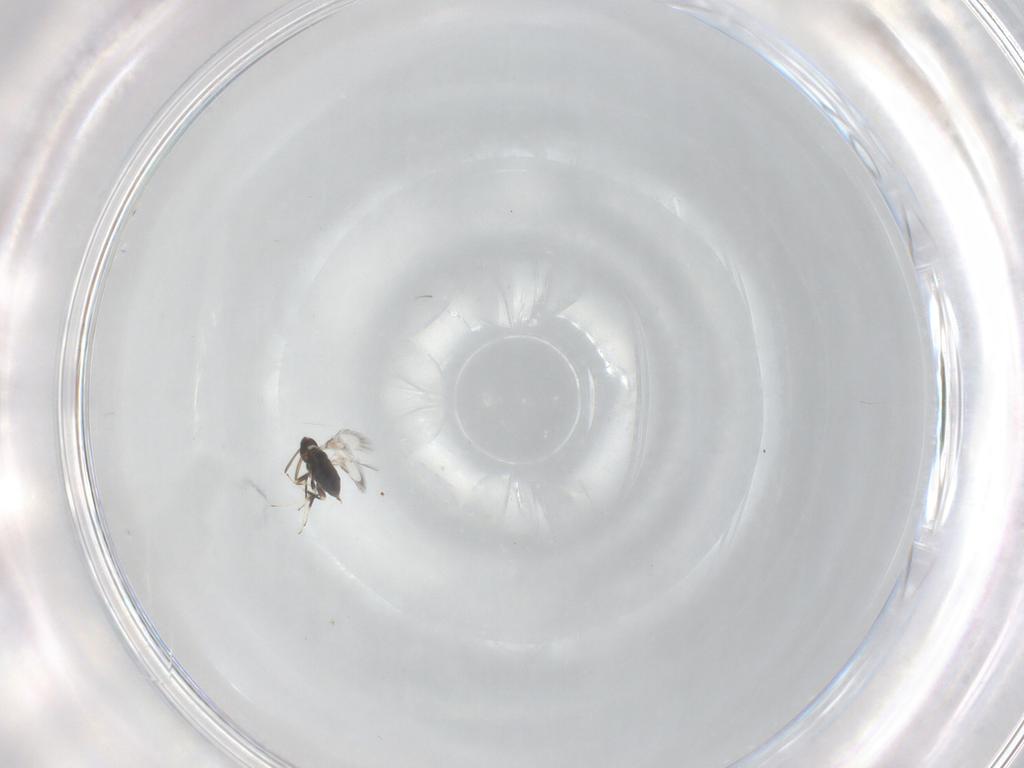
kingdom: Animalia
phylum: Arthropoda
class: Insecta
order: Hymenoptera
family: Signiphoridae
